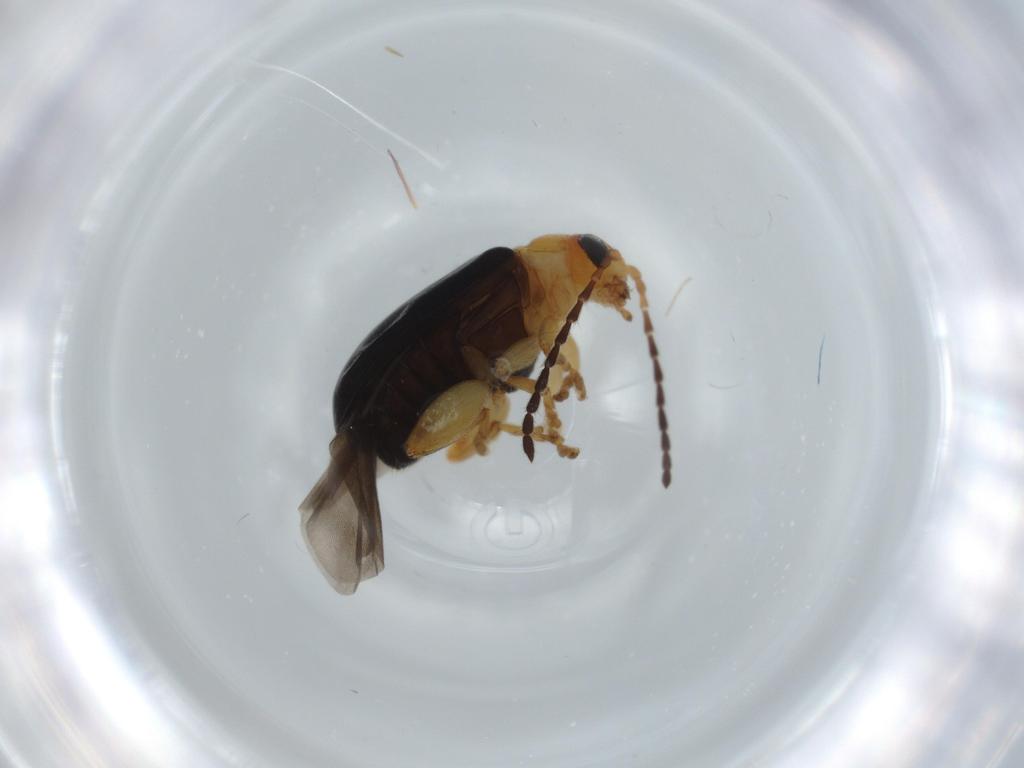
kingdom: Animalia
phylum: Arthropoda
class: Insecta
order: Coleoptera
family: Chrysomelidae
